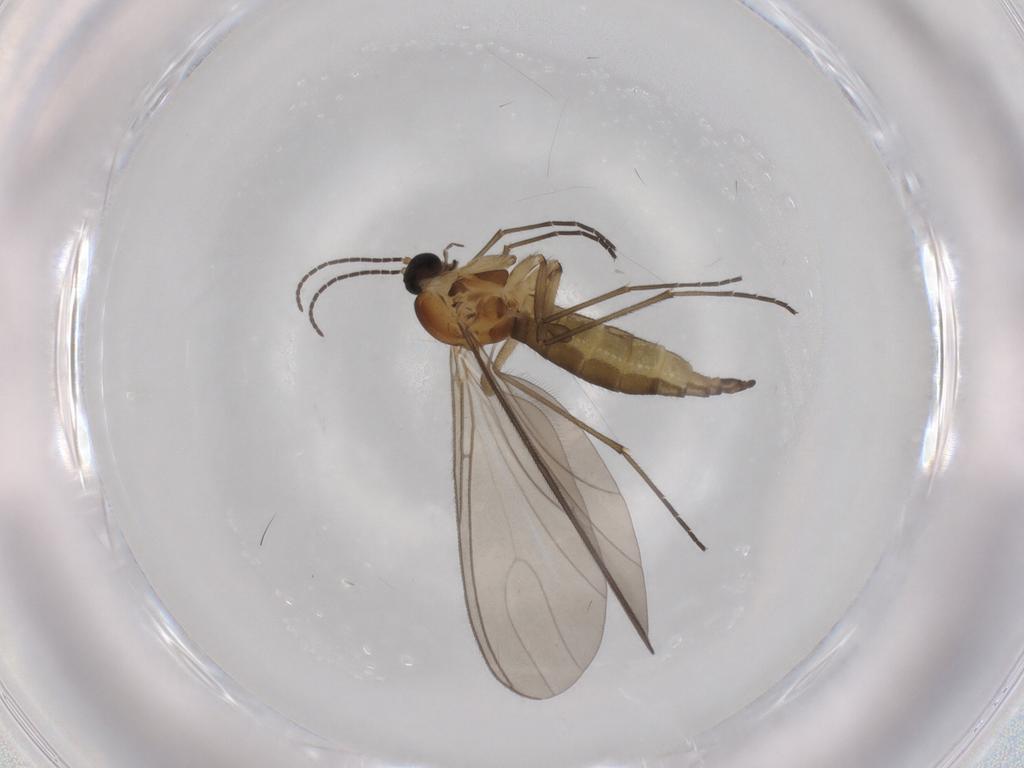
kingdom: Animalia
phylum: Arthropoda
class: Insecta
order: Diptera
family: Sciaridae
